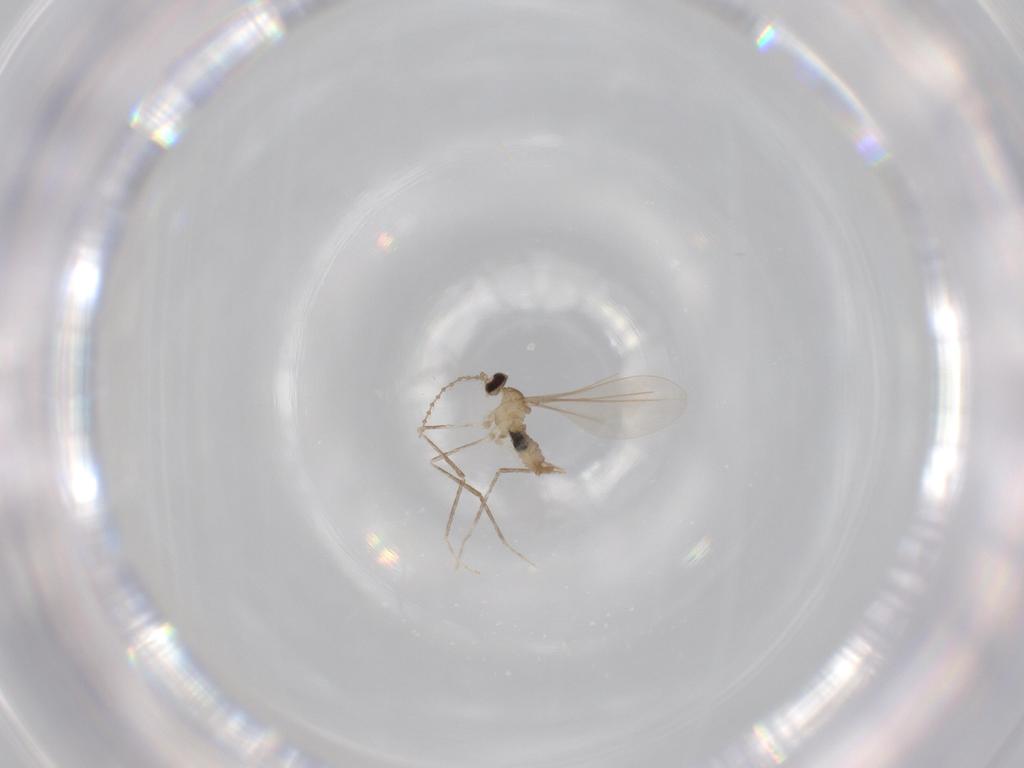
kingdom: Animalia
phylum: Arthropoda
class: Insecta
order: Diptera
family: Cecidomyiidae
